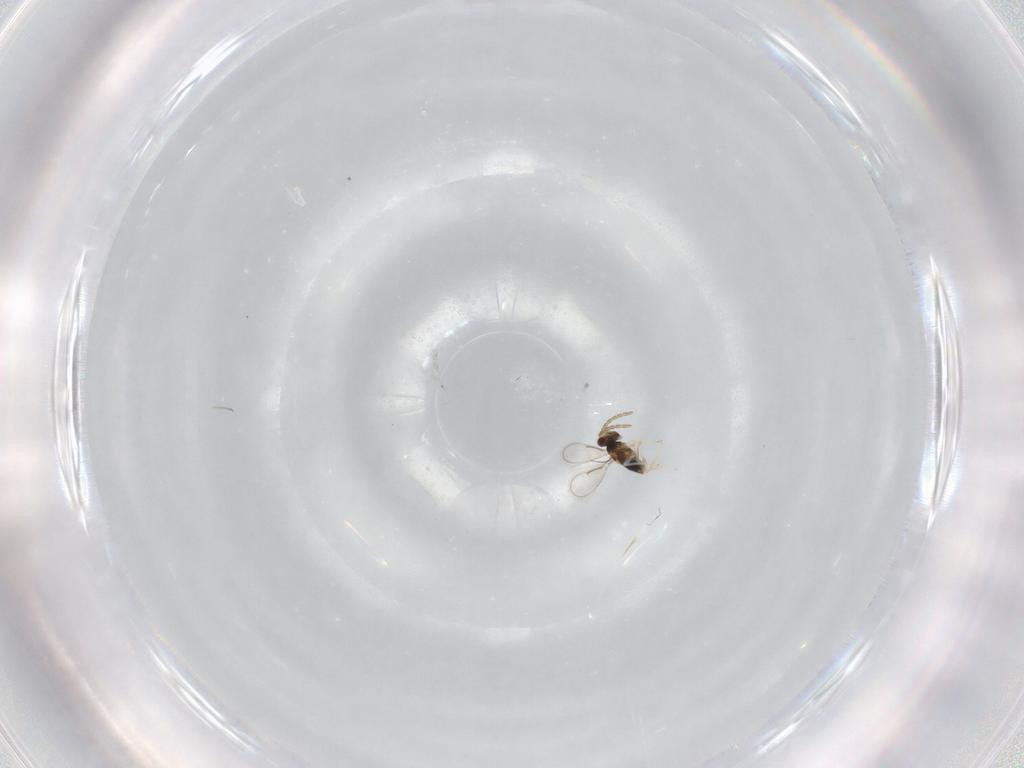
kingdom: Animalia
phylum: Arthropoda
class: Insecta
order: Hymenoptera
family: Aphelinidae
